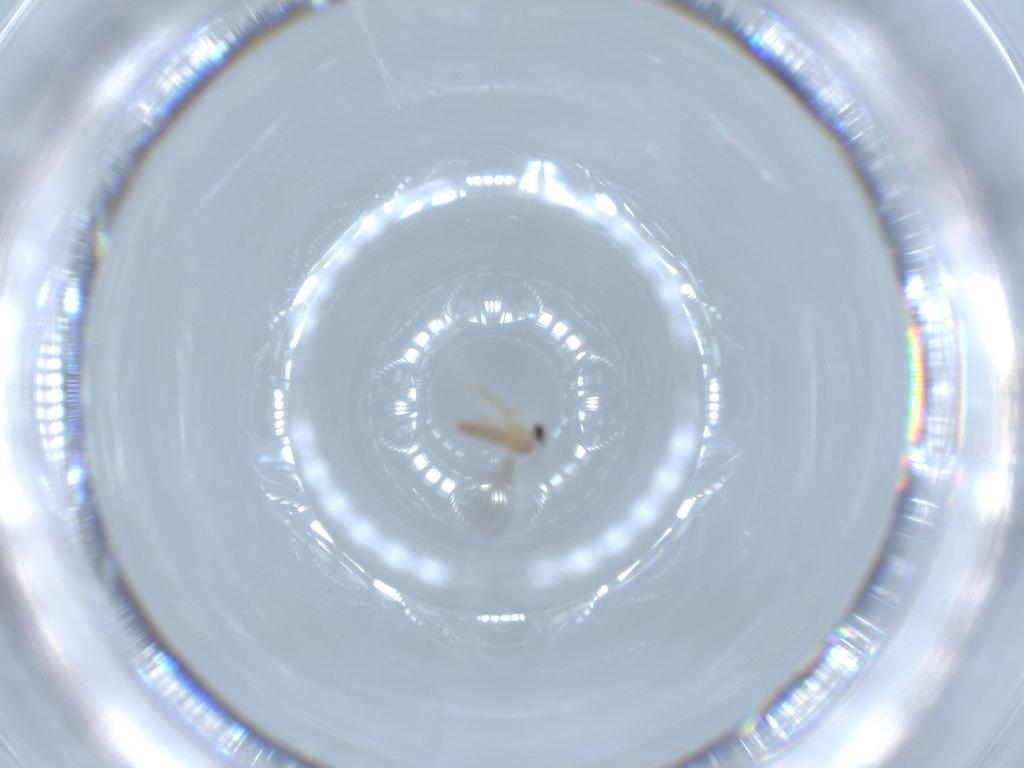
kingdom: Animalia
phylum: Arthropoda
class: Insecta
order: Diptera
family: Cecidomyiidae
